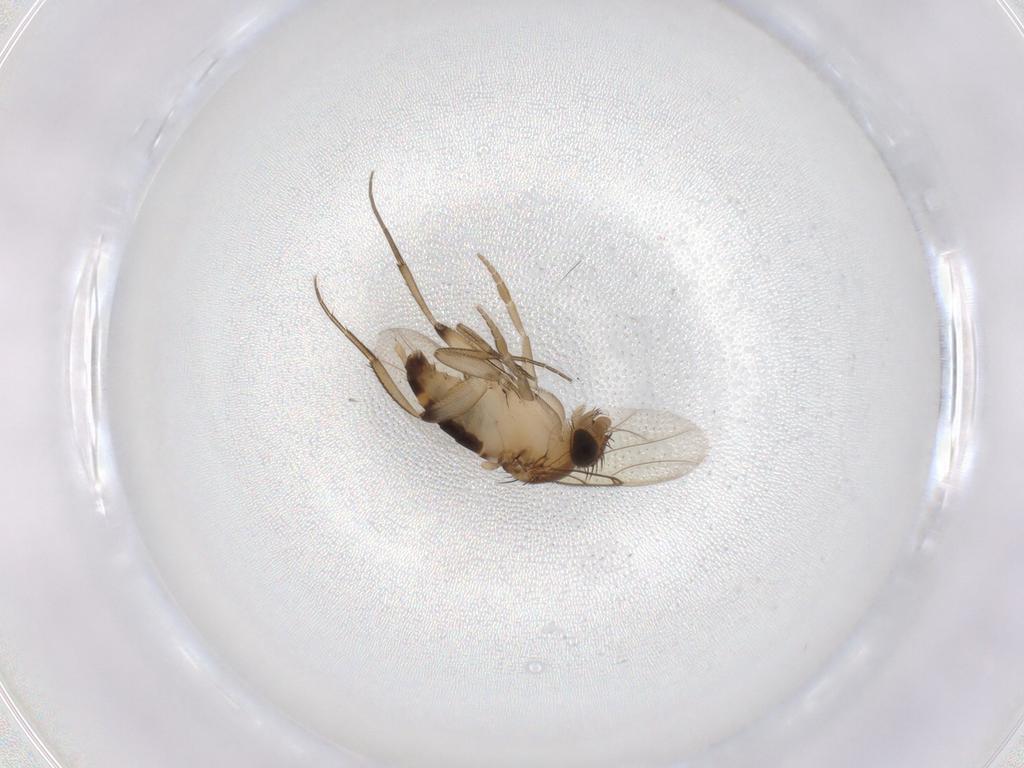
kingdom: Animalia
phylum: Arthropoda
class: Insecta
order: Diptera
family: Phoridae
